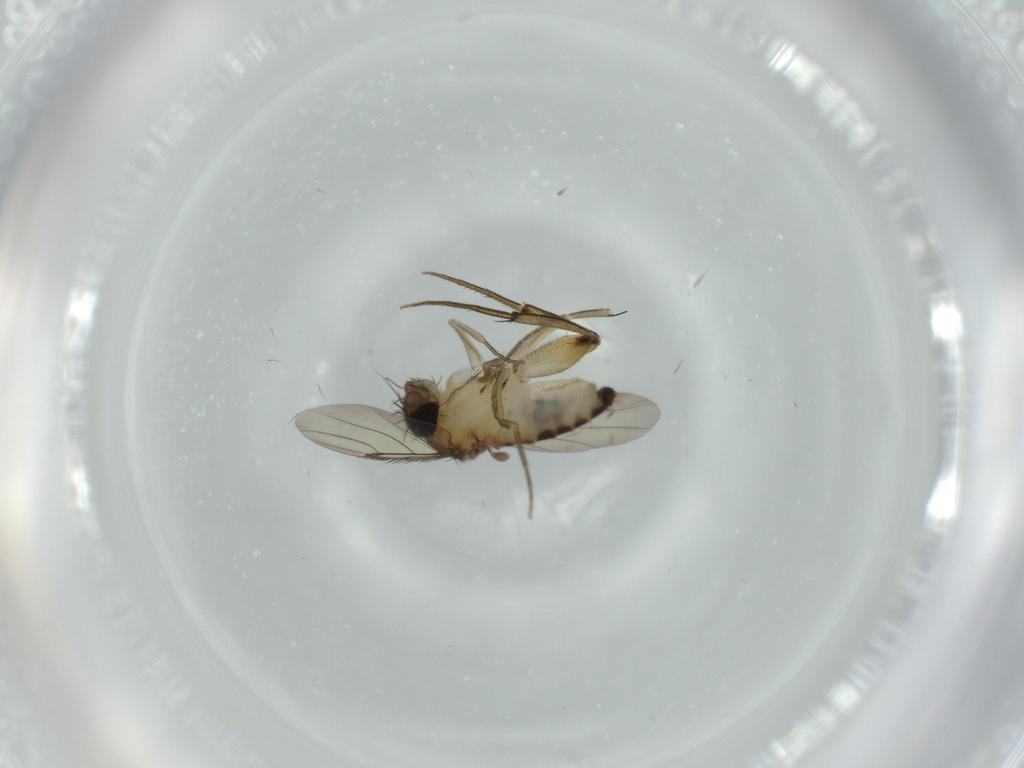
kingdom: Animalia
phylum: Arthropoda
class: Insecta
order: Diptera
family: Phoridae
